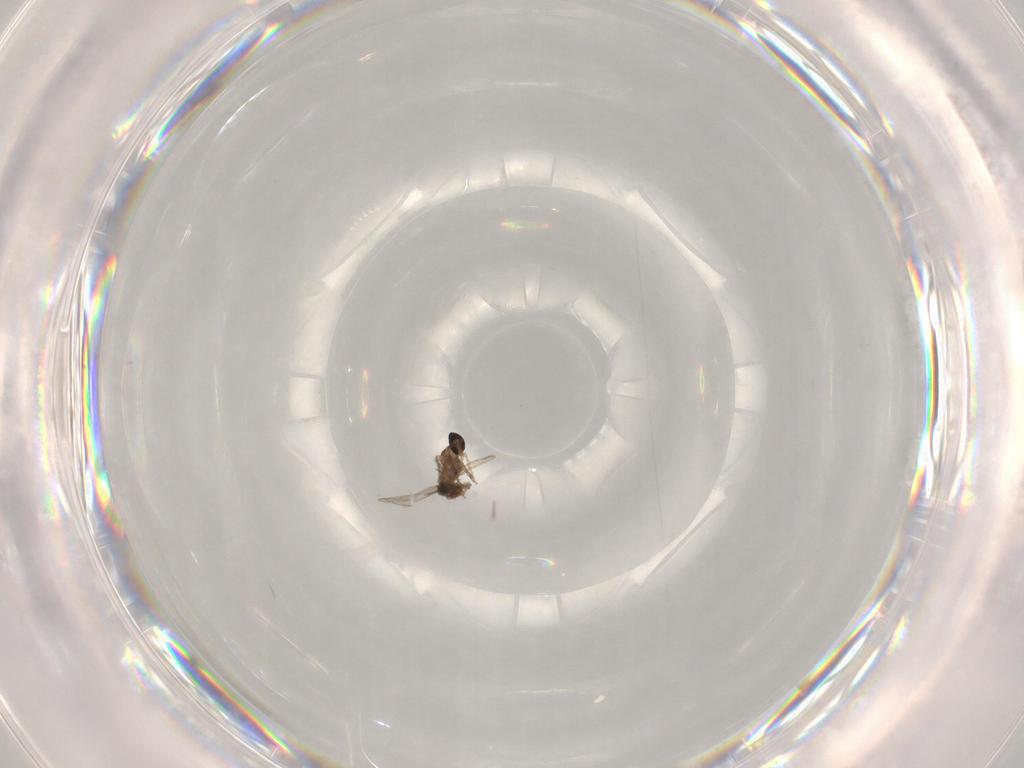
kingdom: Animalia
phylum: Arthropoda
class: Insecta
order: Diptera
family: Chironomidae
